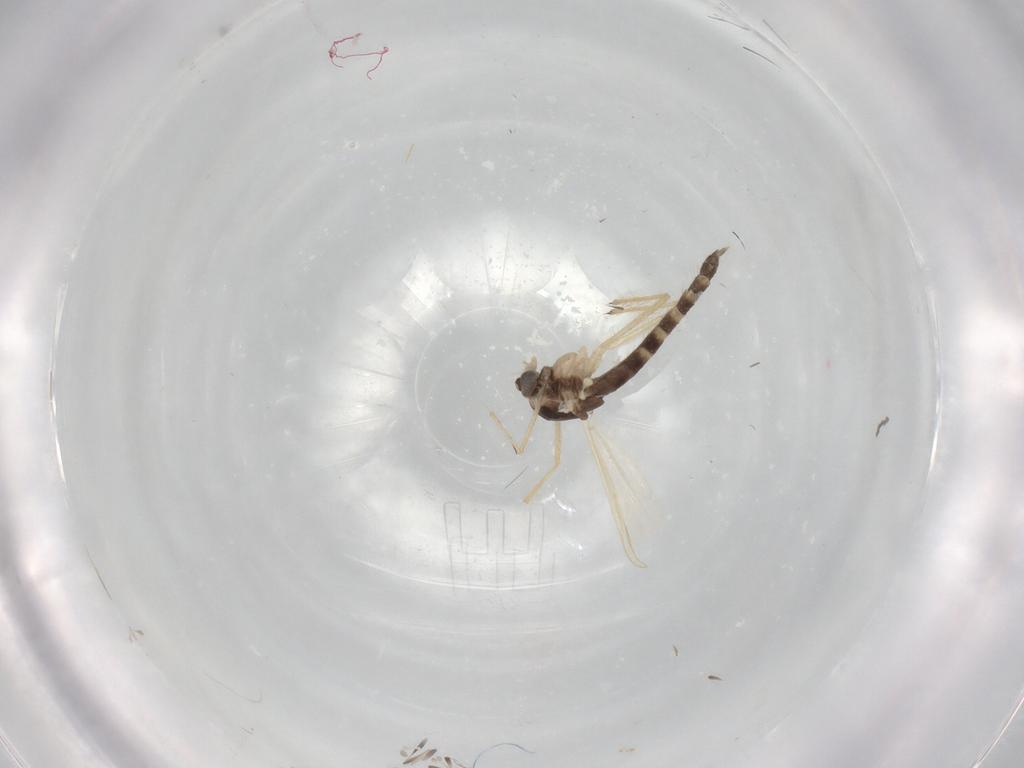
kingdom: Animalia
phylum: Arthropoda
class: Insecta
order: Diptera
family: Chironomidae
